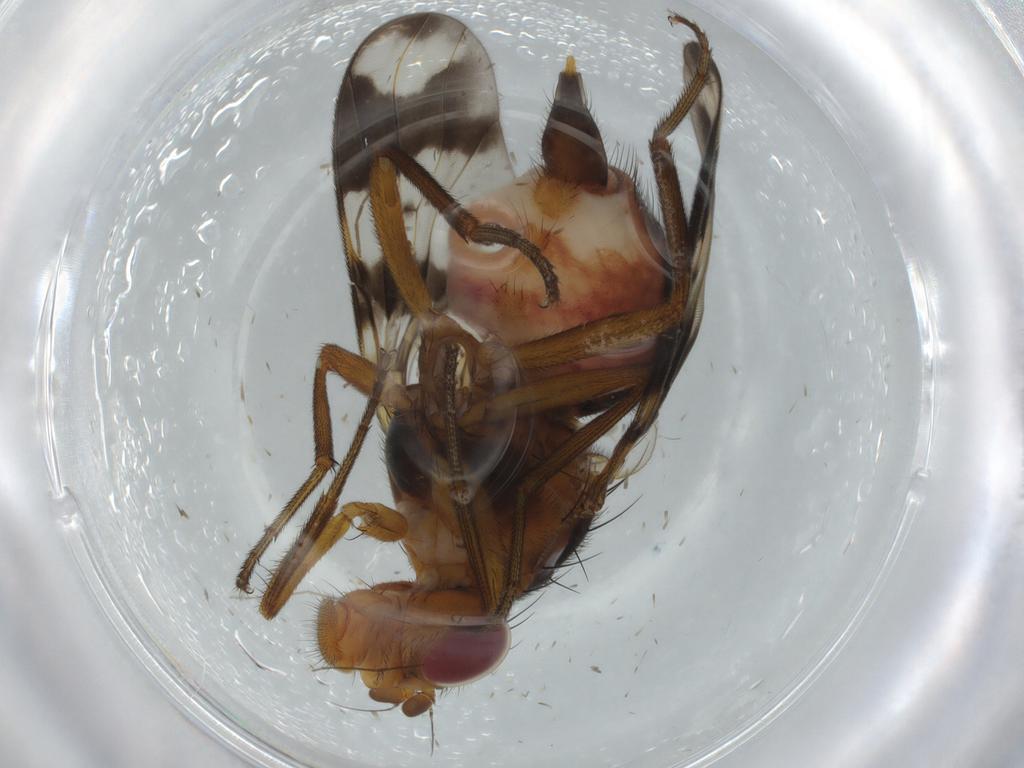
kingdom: Animalia
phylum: Arthropoda
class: Insecta
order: Diptera
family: Richardiidae
